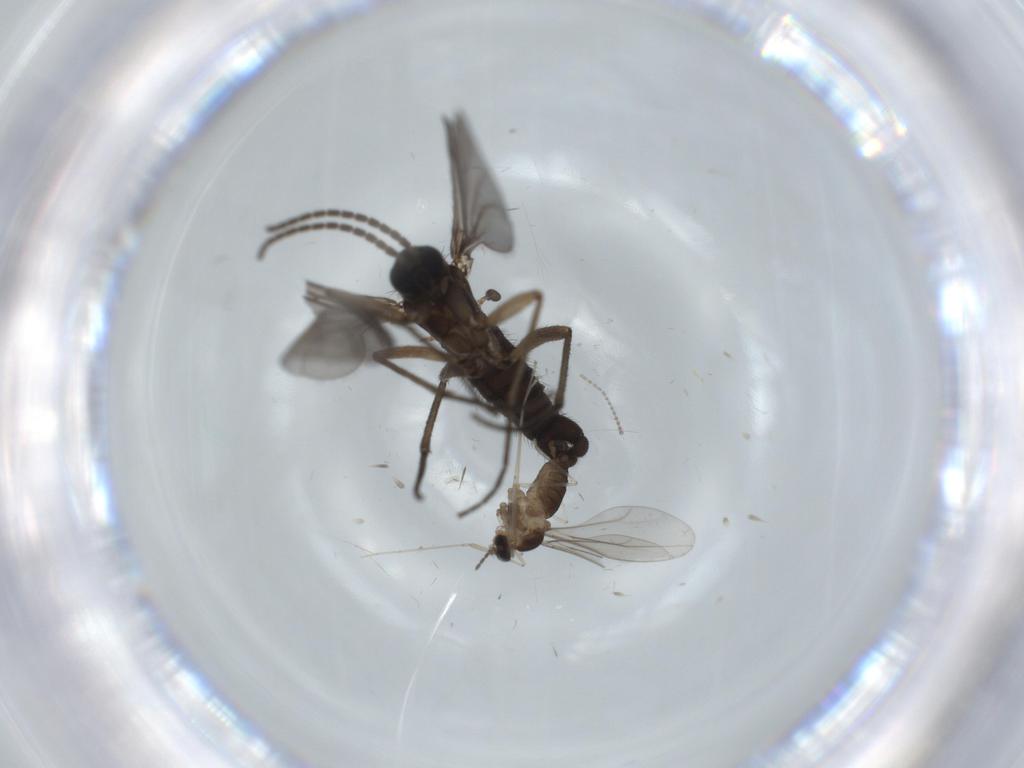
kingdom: Animalia
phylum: Arthropoda
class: Insecta
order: Diptera
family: Sciaridae
